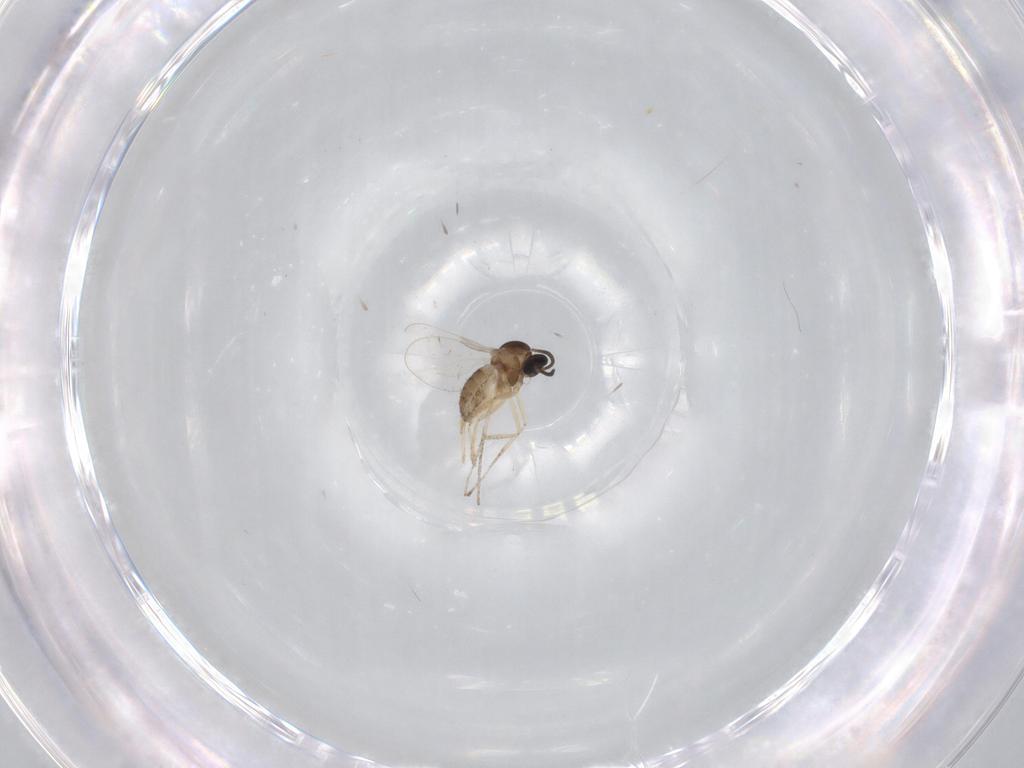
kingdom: Animalia
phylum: Arthropoda
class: Insecta
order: Diptera
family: Cecidomyiidae
